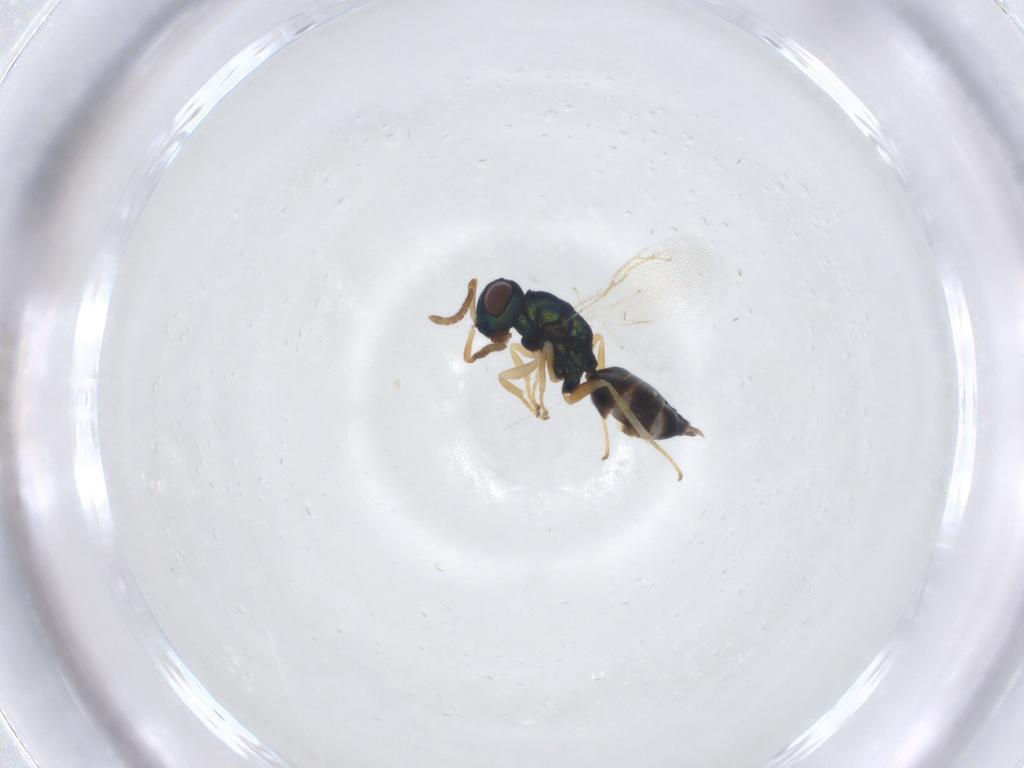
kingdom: Animalia
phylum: Arthropoda
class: Insecta
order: Hymenoptera
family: Pteromalidae
